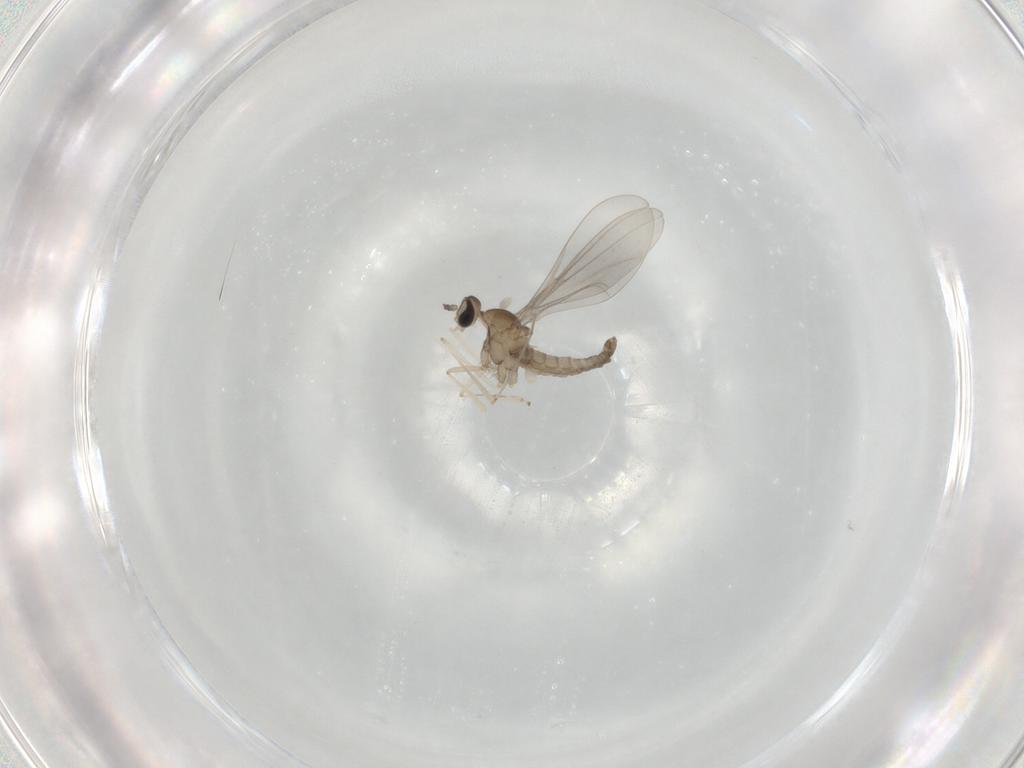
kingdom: Animalia
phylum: Arthropoda
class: Insecta
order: Diptera
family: Cecidomyiidae
